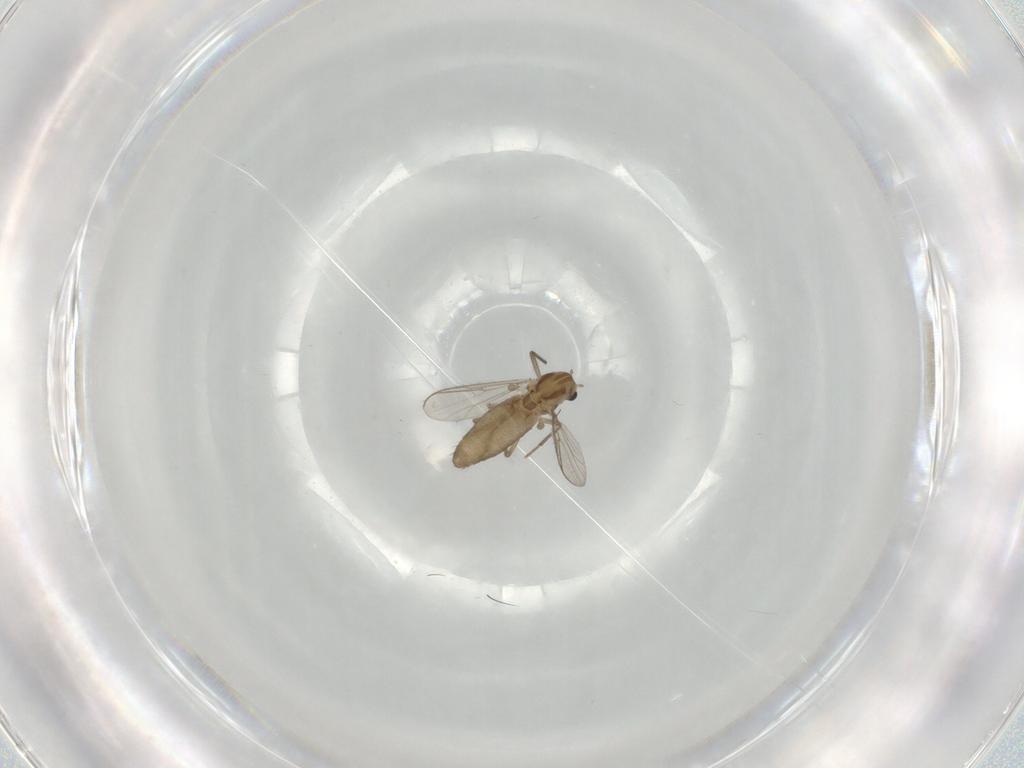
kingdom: Animalia
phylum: Arthropoda
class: Insecta
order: Diptera
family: Chironomidae
